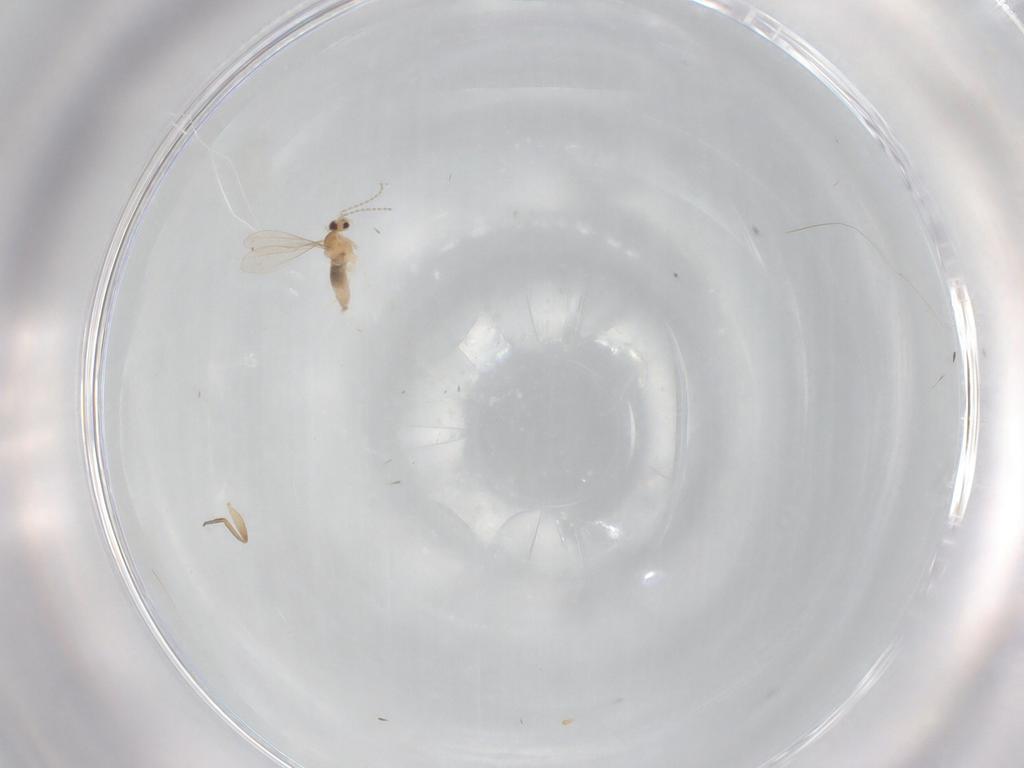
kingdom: Animalia
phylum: Arthropoda
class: Insecta
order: Diptera
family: Cecidomyiidae
